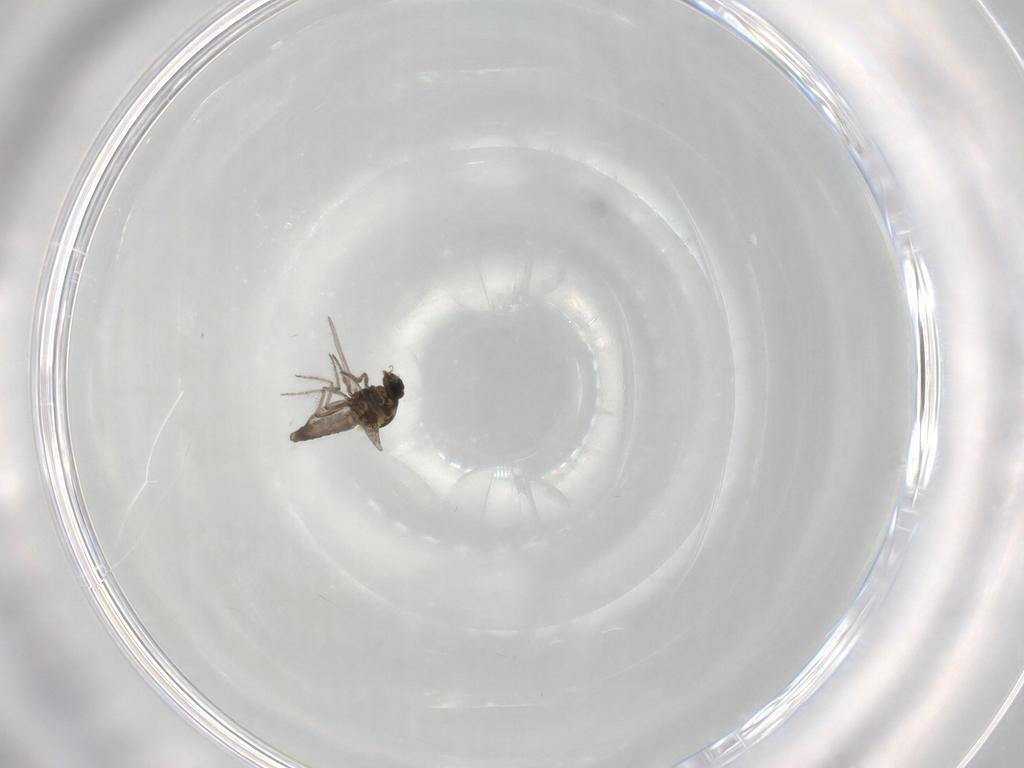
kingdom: Animalia
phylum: Arthropoda
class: Insecta
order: Diptera
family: Ceratopogonidae
